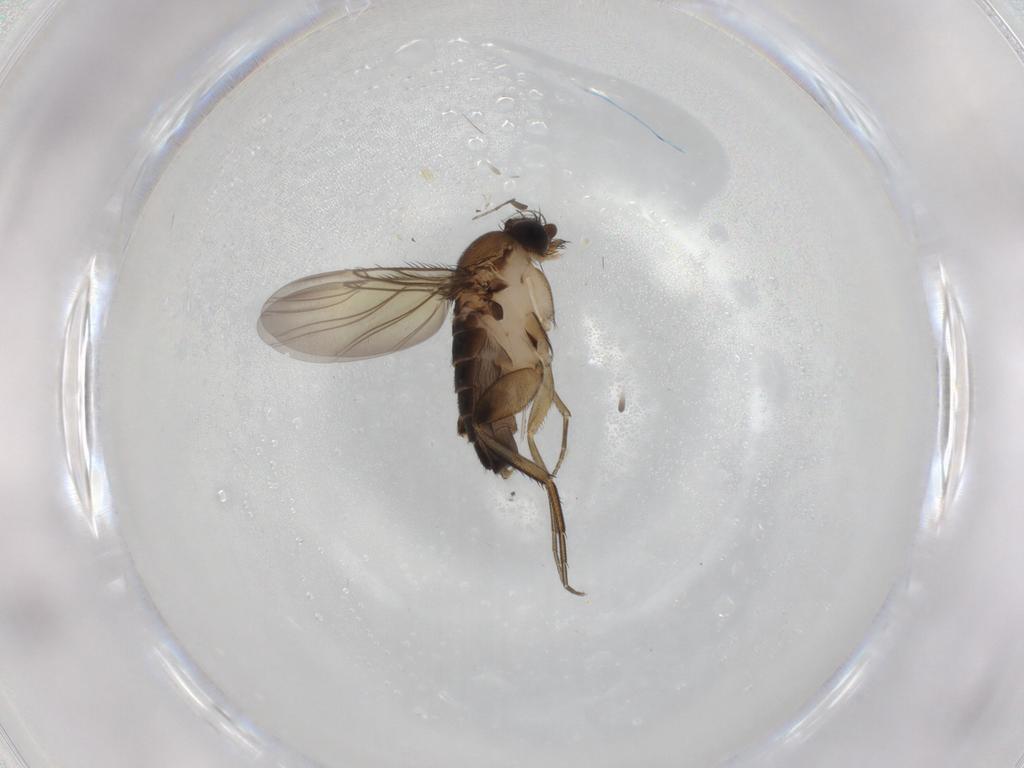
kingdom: Animalia
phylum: Arthropoda
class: Insecta
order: Diptera
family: Phoridae
